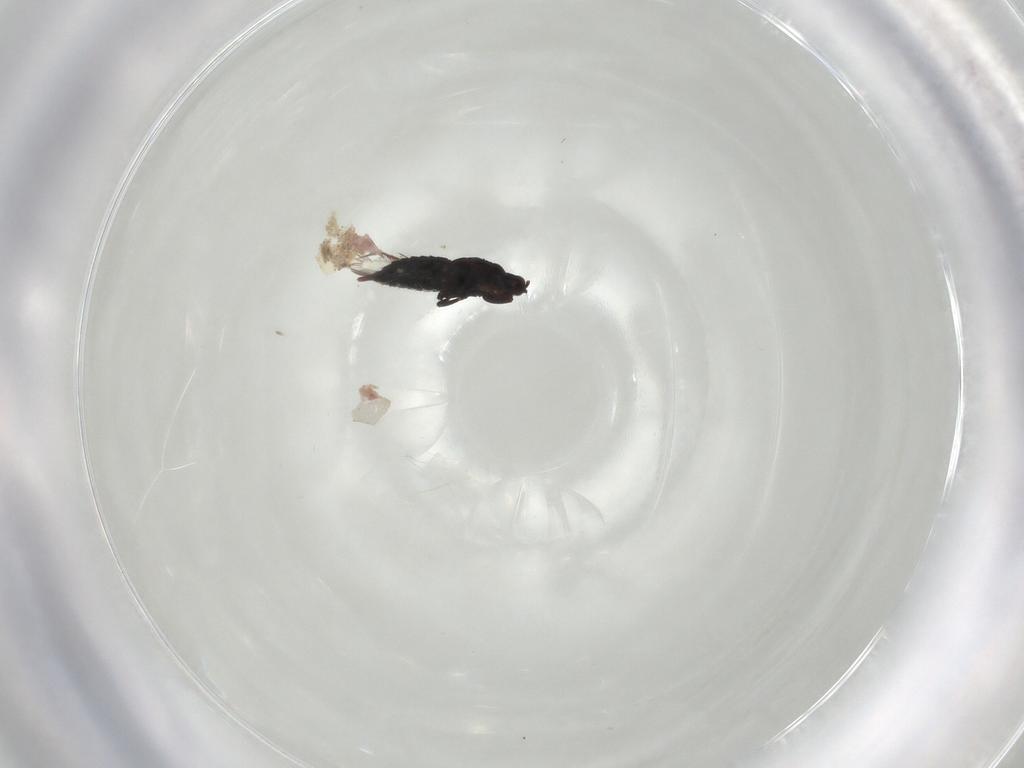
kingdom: Animalia
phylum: Arthropoda
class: Insecta
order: Thysanoptera
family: Phlaeothripidae
